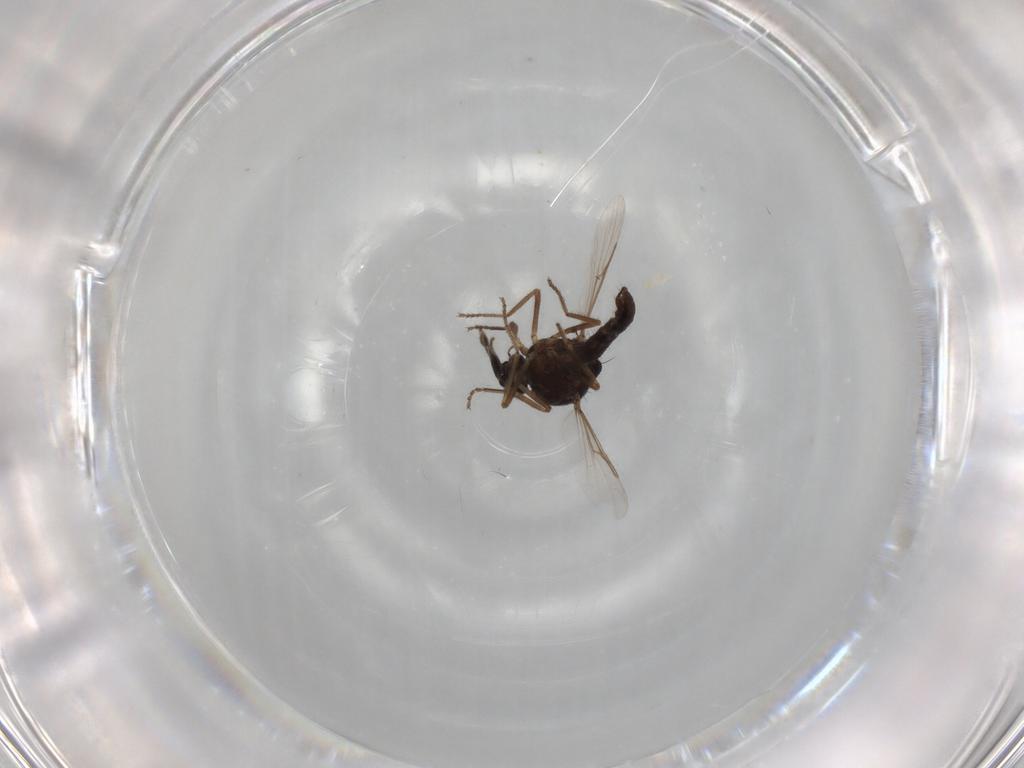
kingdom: Animalia
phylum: Arthropoda
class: Insecta
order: Diptera
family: Ceratopogonidae
